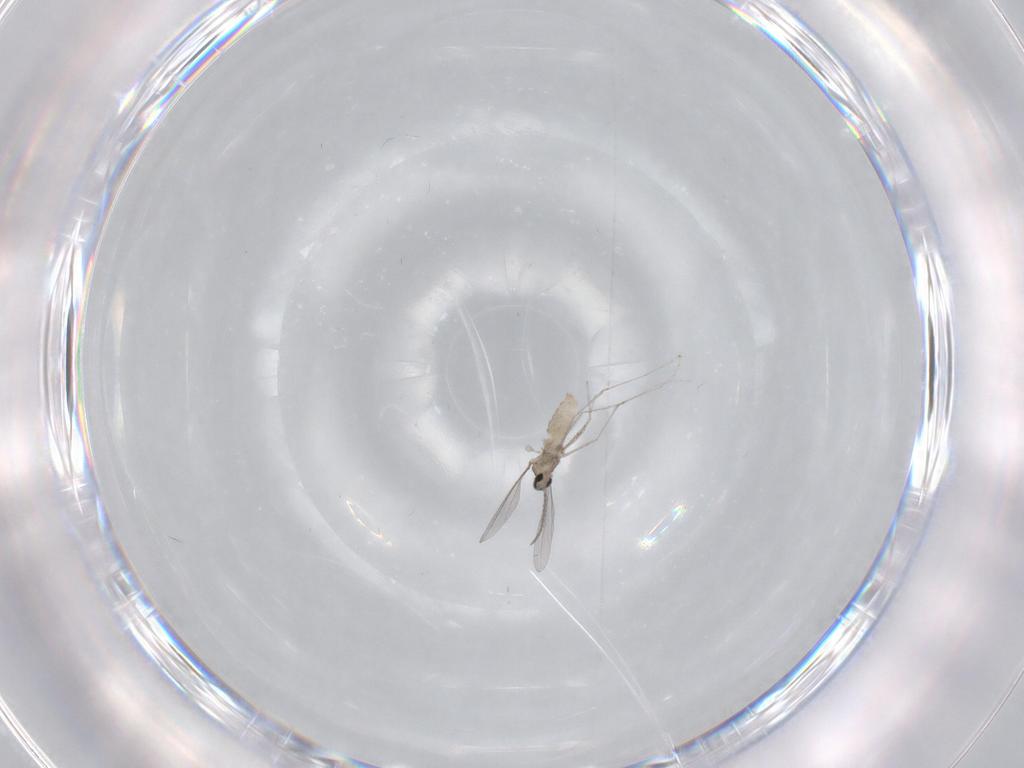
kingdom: Animalia
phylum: Arthropoda
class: Insecta
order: Diptera
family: Cecidomyiidae
